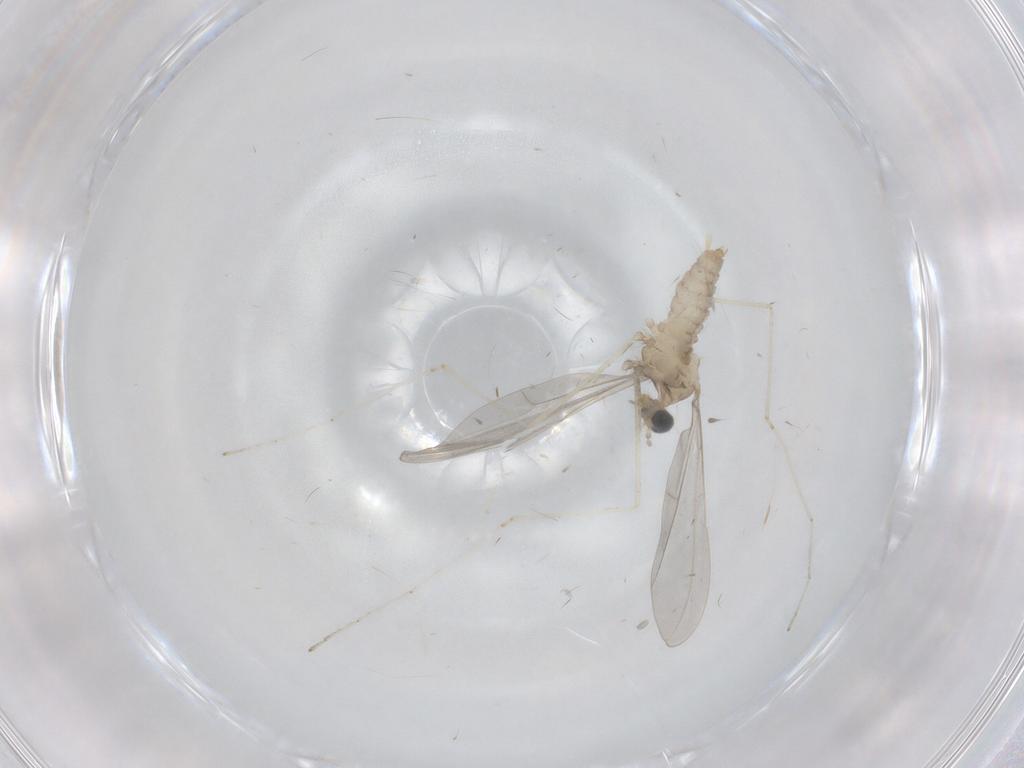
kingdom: Animalia
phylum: Arthropoda
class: Insecta
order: Diptera
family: Cecidomyiidae
